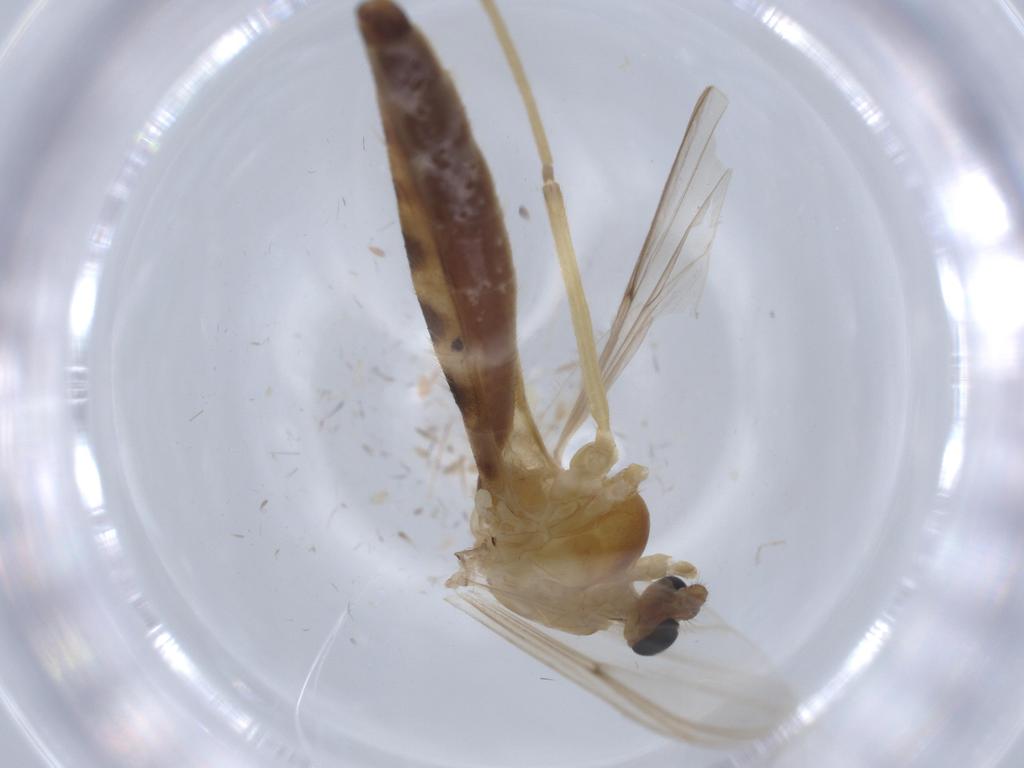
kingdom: Animalia
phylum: Arthropoda
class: Insecta
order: Diptera
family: Chironomidae
